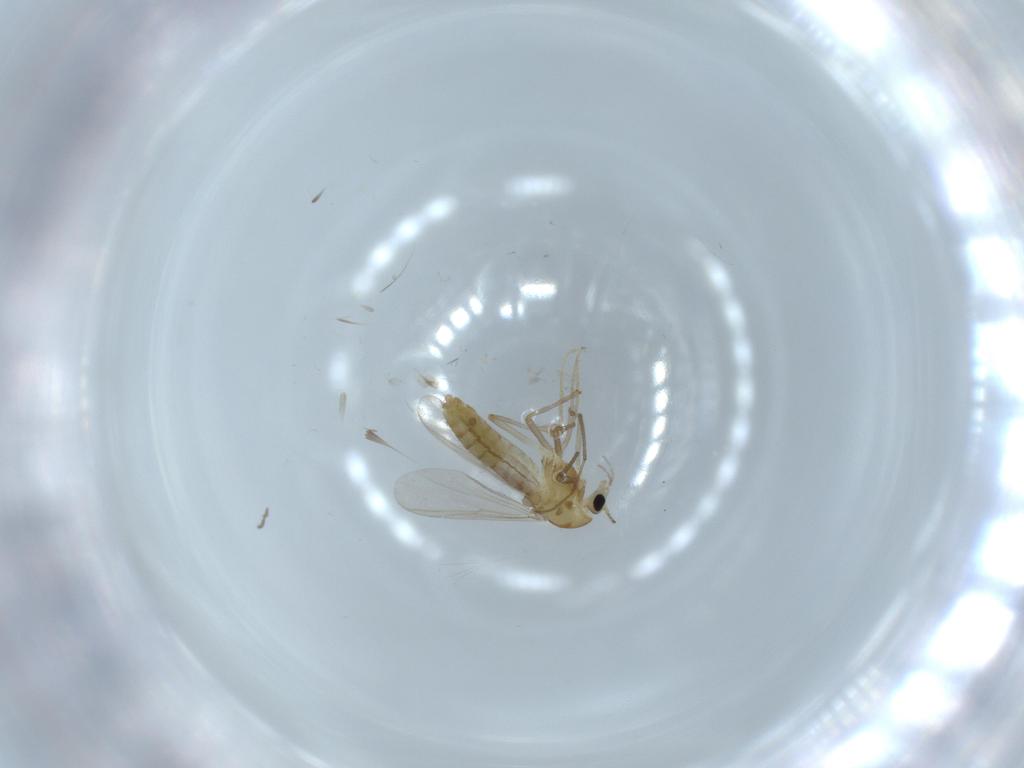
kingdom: Animalia
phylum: Arthropoda
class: Insecta
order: Diptera
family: Chironomidae
